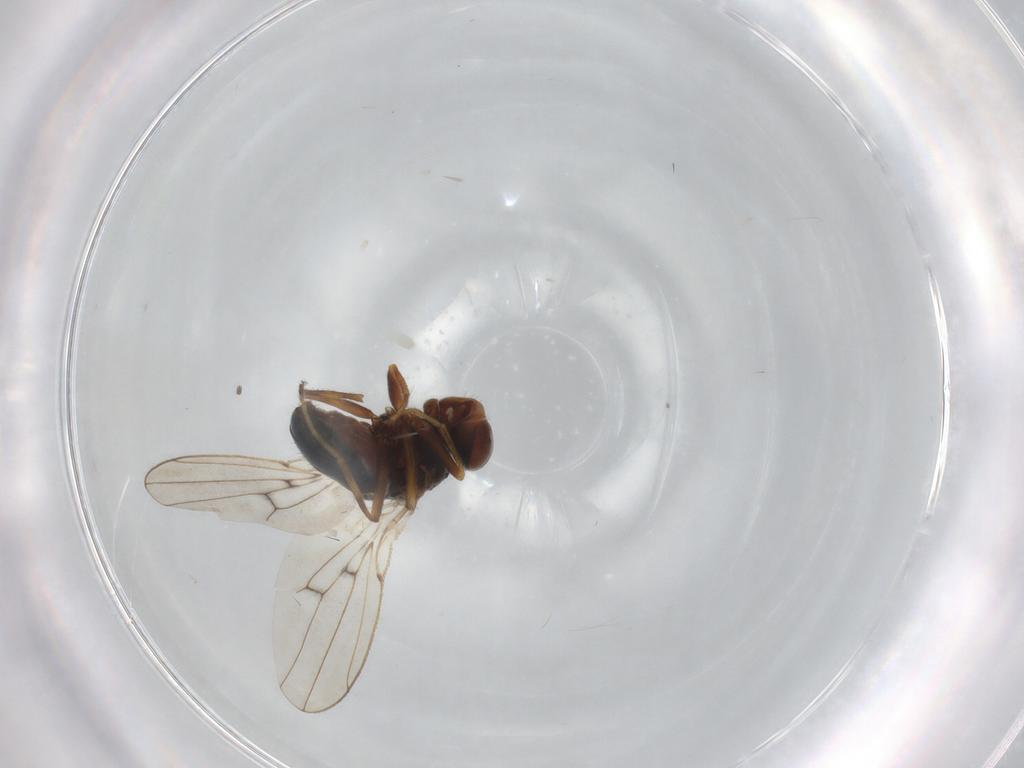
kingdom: Animalia
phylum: Arthropoda
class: Insecta
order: Diptera
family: Ephydridae
